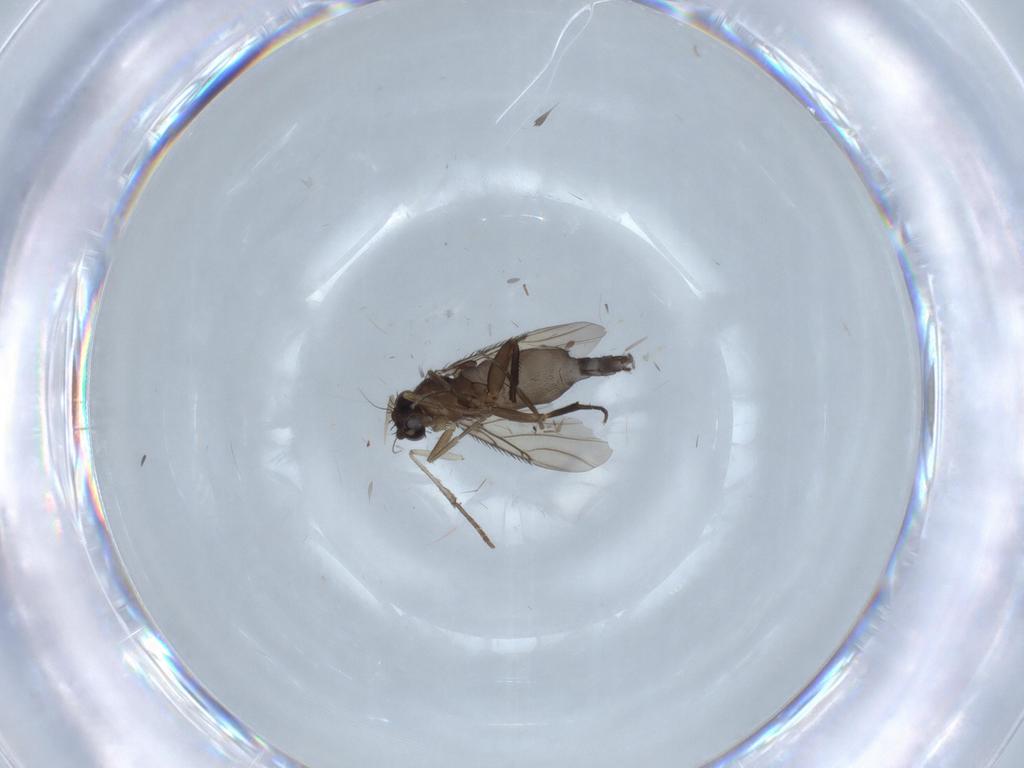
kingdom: Animalia
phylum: Arthropoda
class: Insecta
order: Diptera
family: Phoridae
